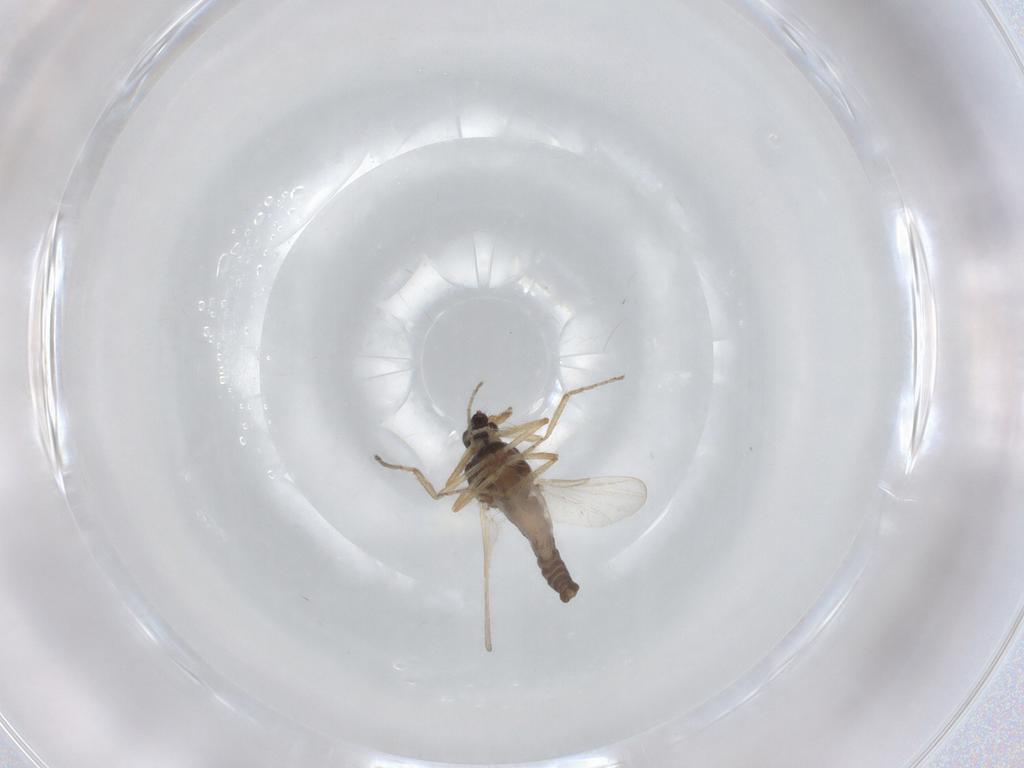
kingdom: Animalia
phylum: Arthropoda
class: Insecta
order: Diptera
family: Ceratopogonidae
